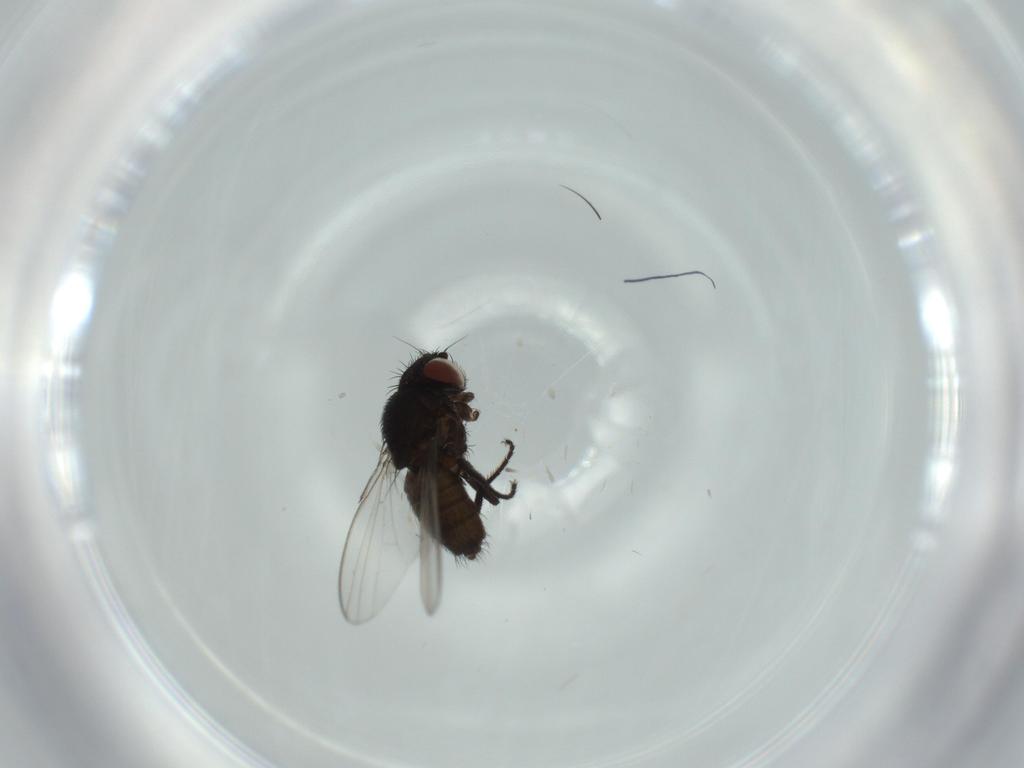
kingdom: Animalia
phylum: Arthropoda
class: Insecta
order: Diptera
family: Milichiidae
